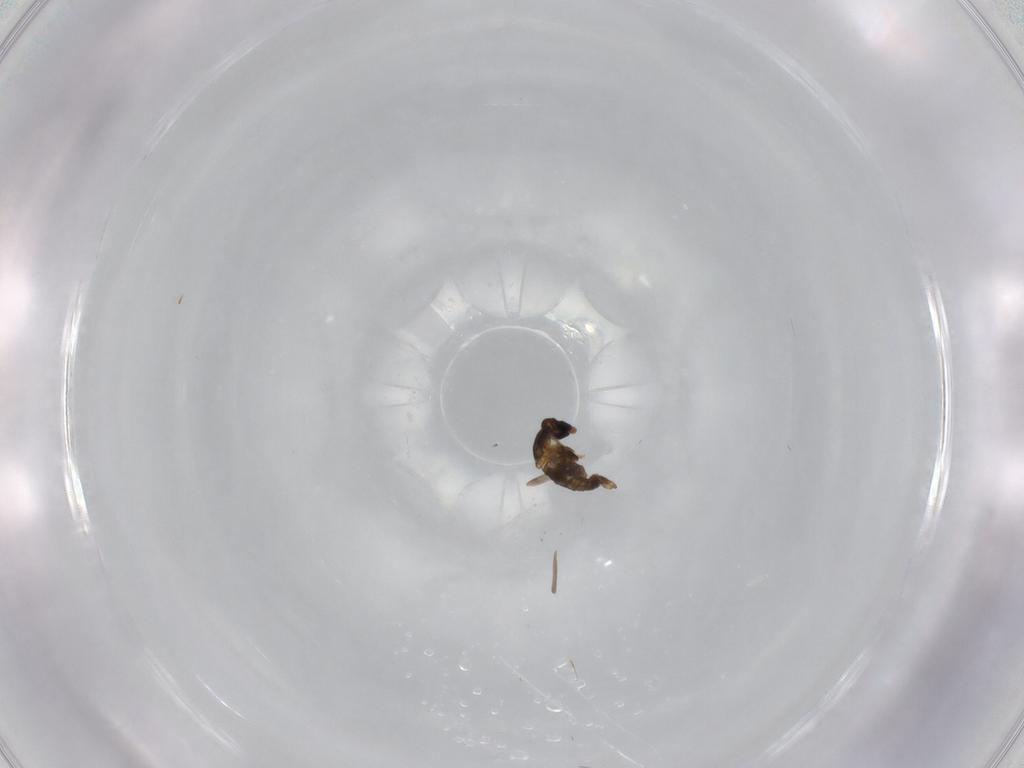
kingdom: Animalia
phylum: Arthropoda
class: Insecta
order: Diptera
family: Cecidomyiidae
